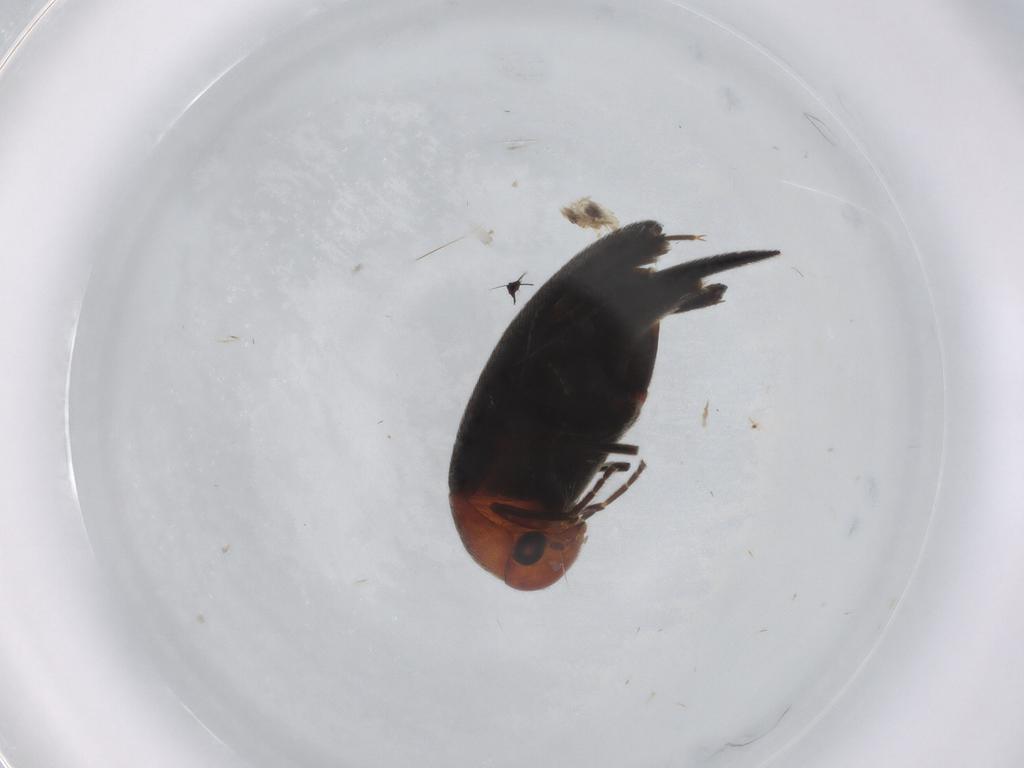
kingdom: Animalia
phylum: Arthropoda
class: Insecta
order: Coleoptera
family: Mordellidae
